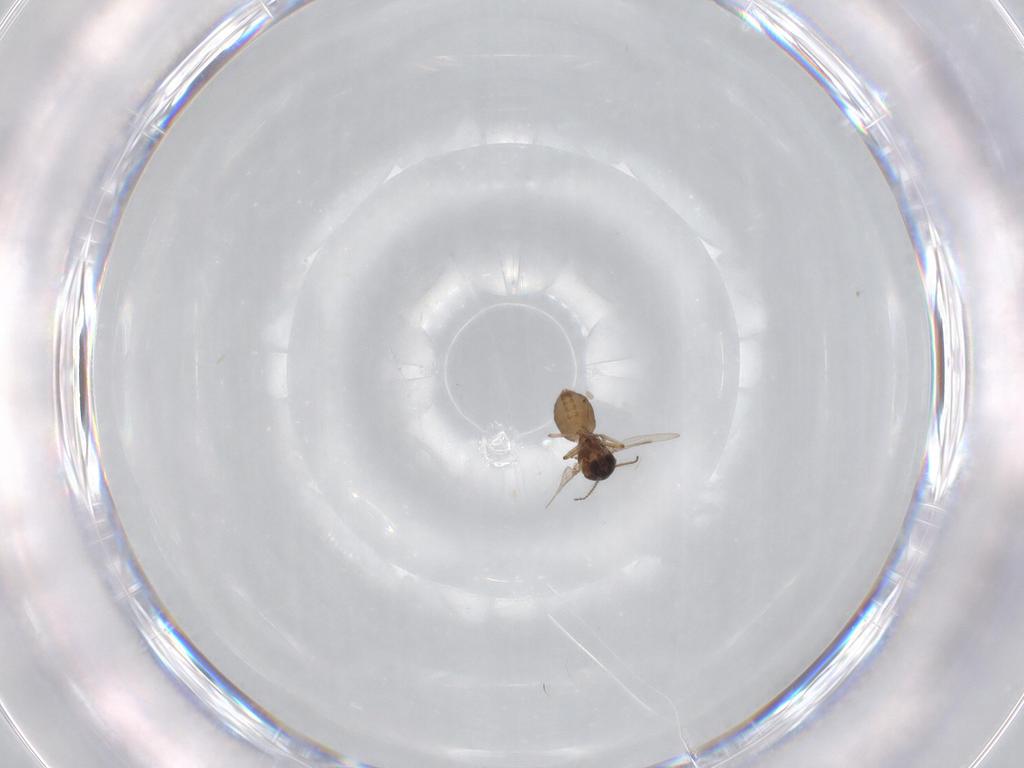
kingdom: Animalia
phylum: Arthropoda
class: Insecta
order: Diptera
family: Ceratopogonidae
